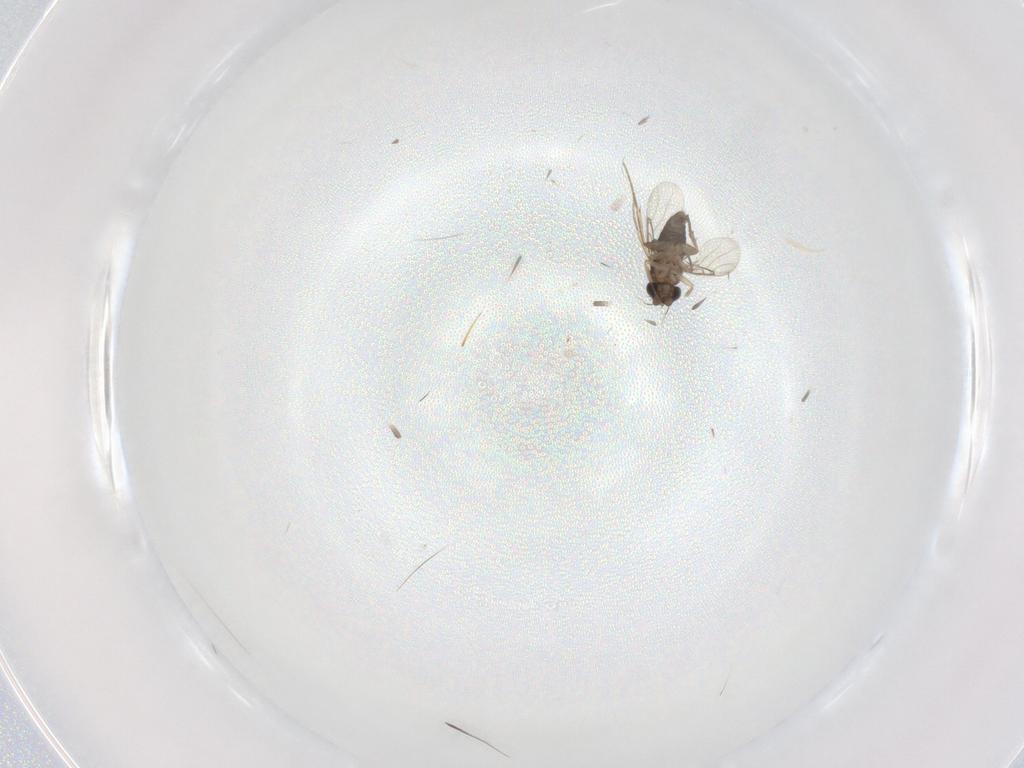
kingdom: Animalia
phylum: Arthropoda
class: Insecta
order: Diptera
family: Phoridae
